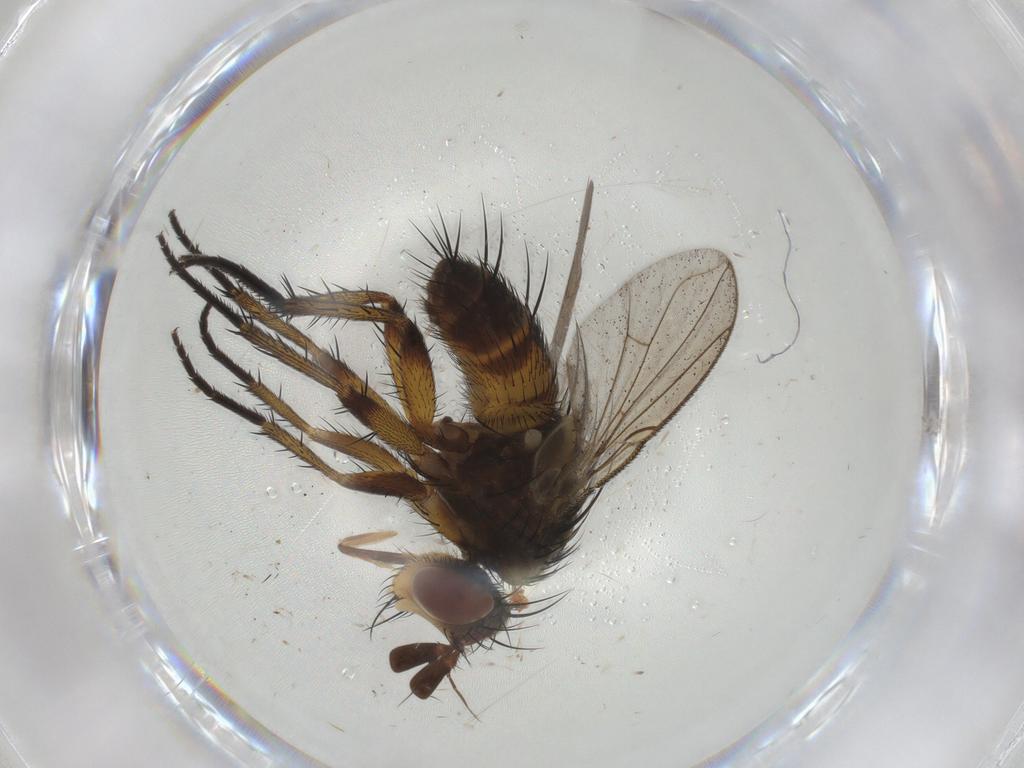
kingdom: Animalia
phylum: Arthropoda
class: Insecta
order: Diptera
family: Tachinidae
